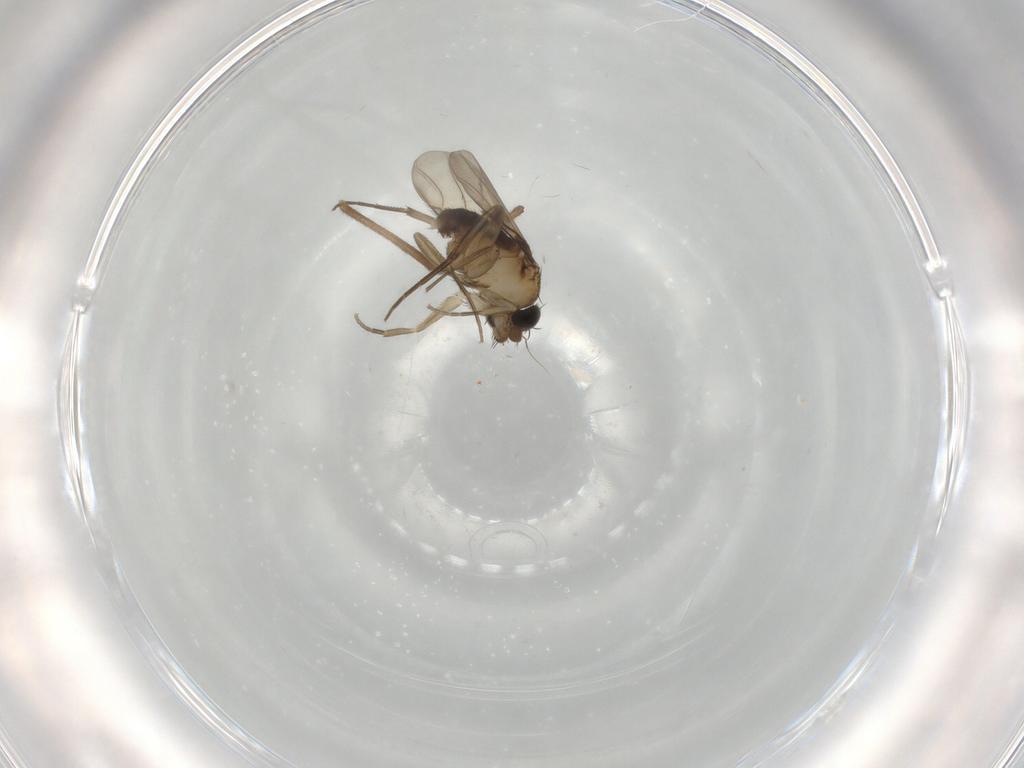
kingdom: Animalia
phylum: Arthropoda
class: Insecta
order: Diptera
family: Phoridae
